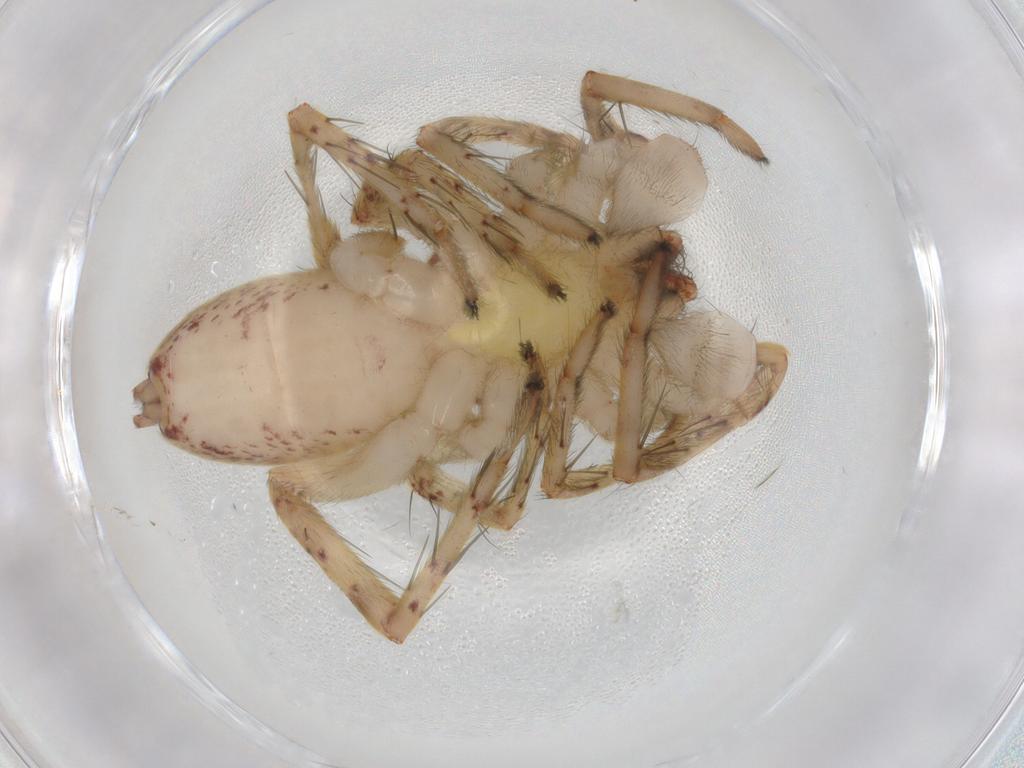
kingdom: Animalia
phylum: Arthropoda
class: Arachnida
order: Araneae
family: Anyphaenidae
